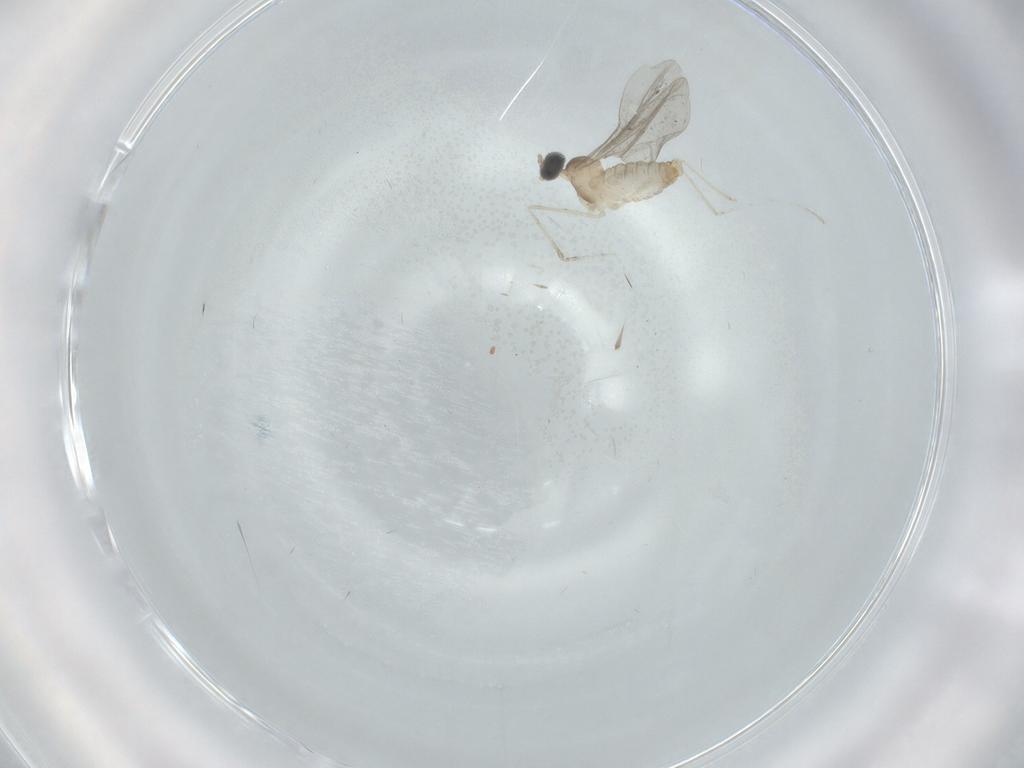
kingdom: Animalia
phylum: Arthropoda
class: Insecta
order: Diptera
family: Cecidomyiidae
